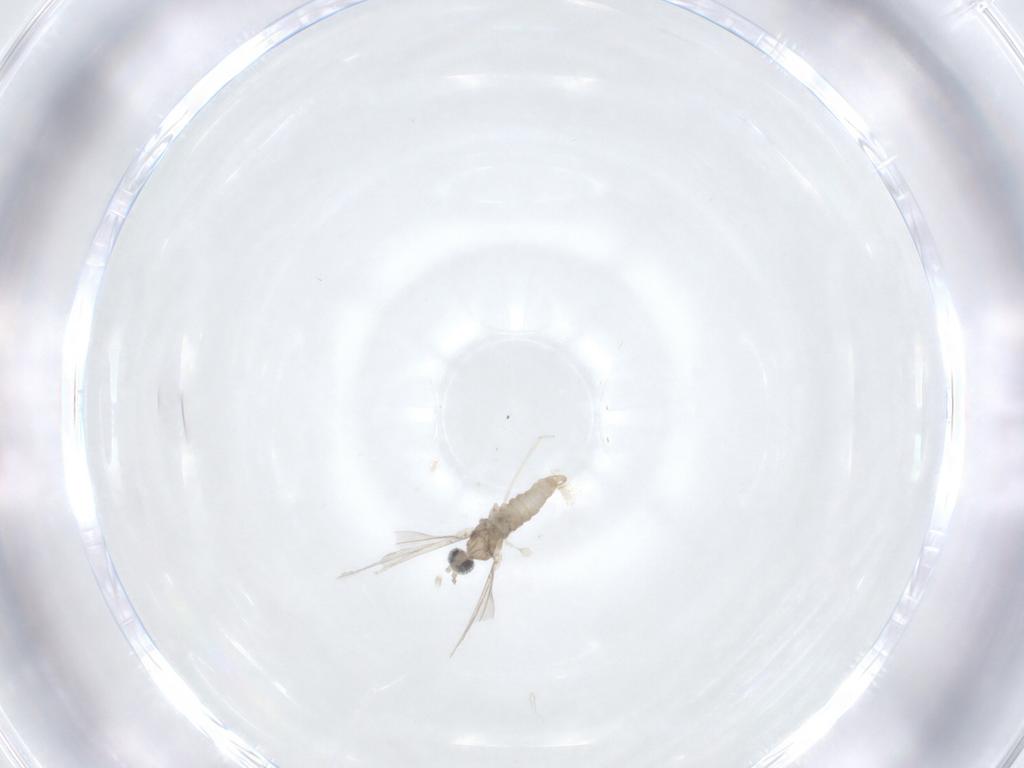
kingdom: Animalia
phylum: Arthropoda
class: Insecta
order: Diptera
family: Cecidomyiidae
